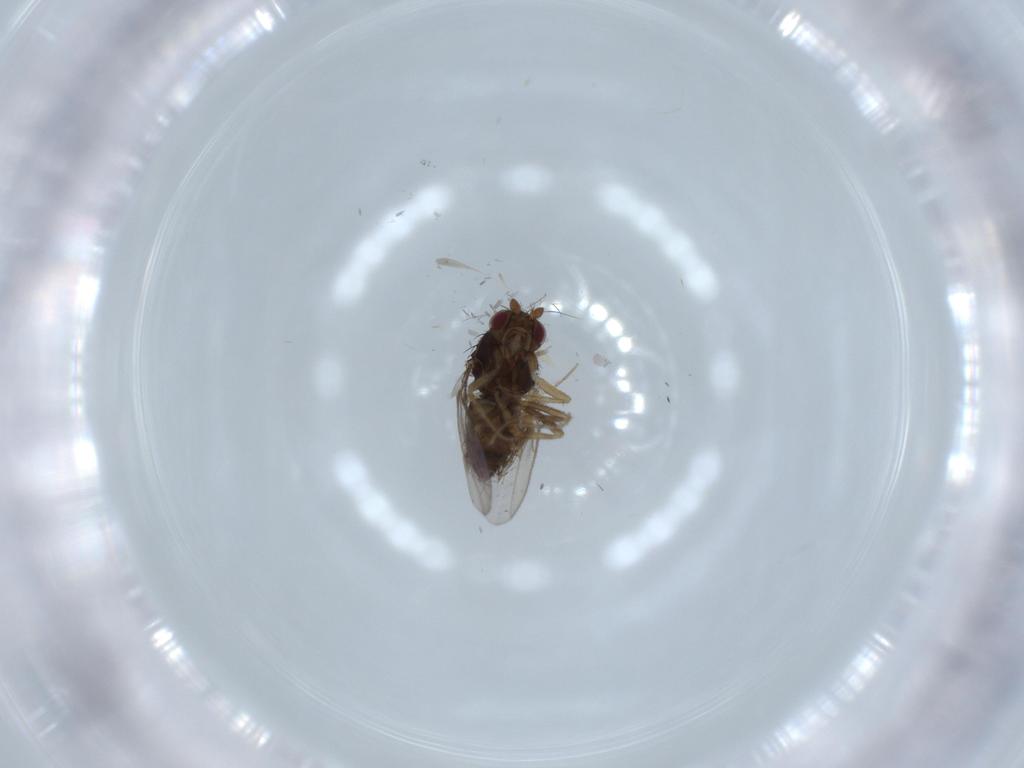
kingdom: Animalia
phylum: Arthropoda
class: Insecta
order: Diptera
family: Sphaeroceridae
